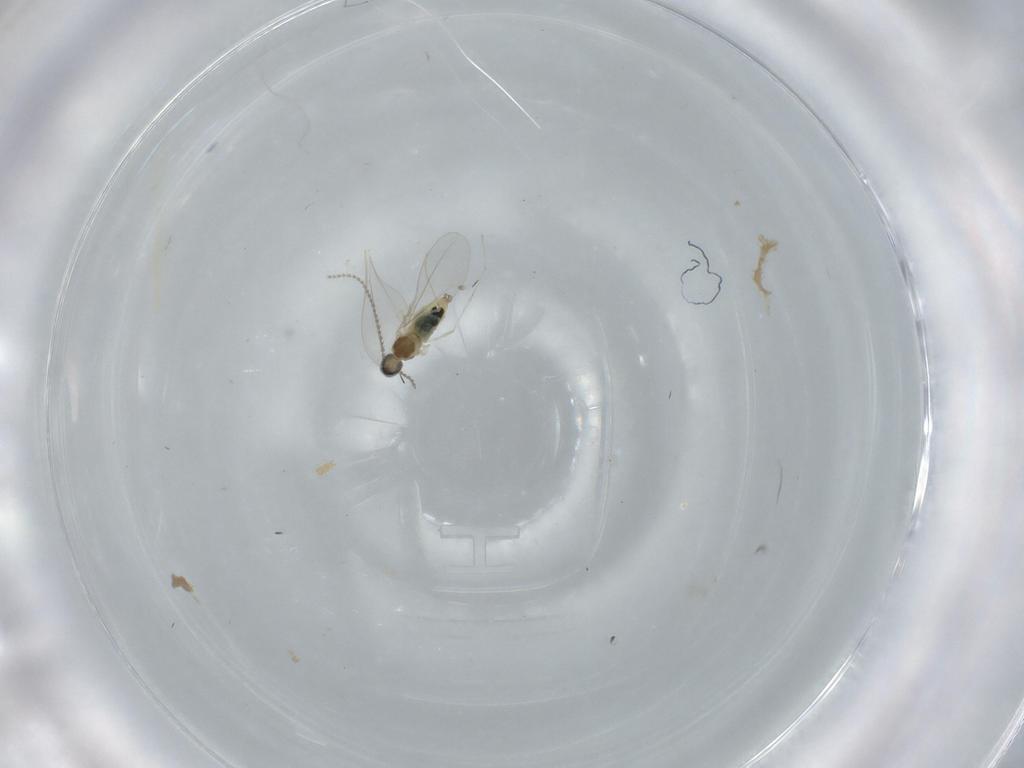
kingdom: Animalia
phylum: Arthropoda
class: Insecta
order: Diptera
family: Cecidomyiidae
